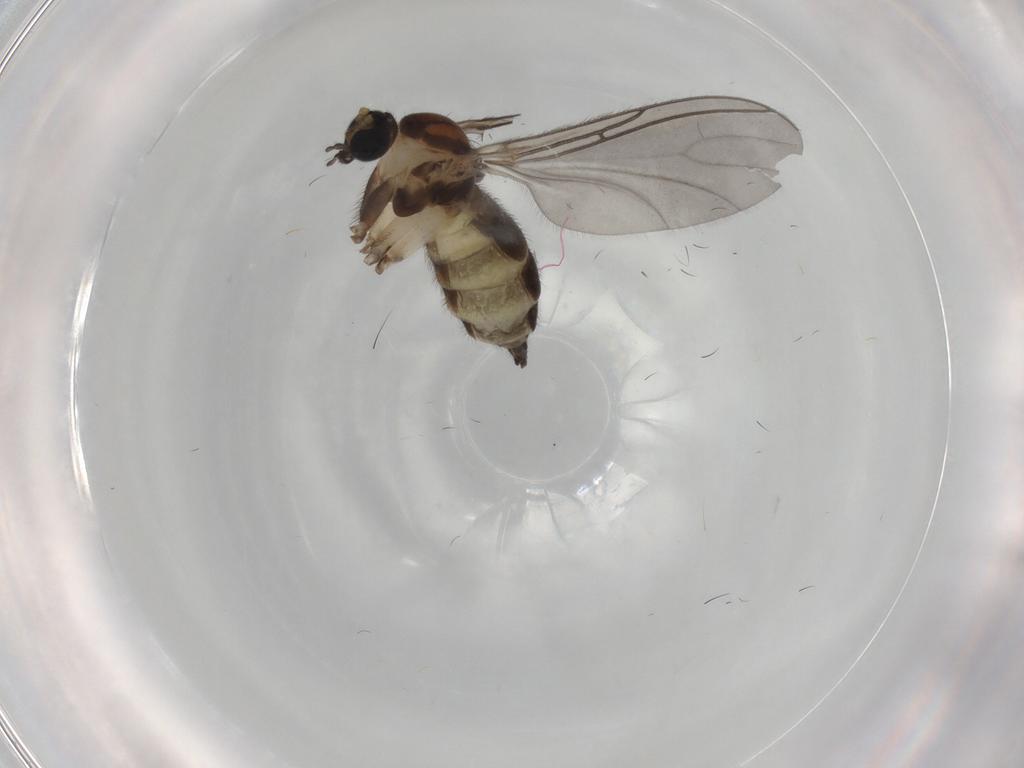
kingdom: Animalia
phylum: Arthropoda
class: Insecta
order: Diptera
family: Sciaridae
